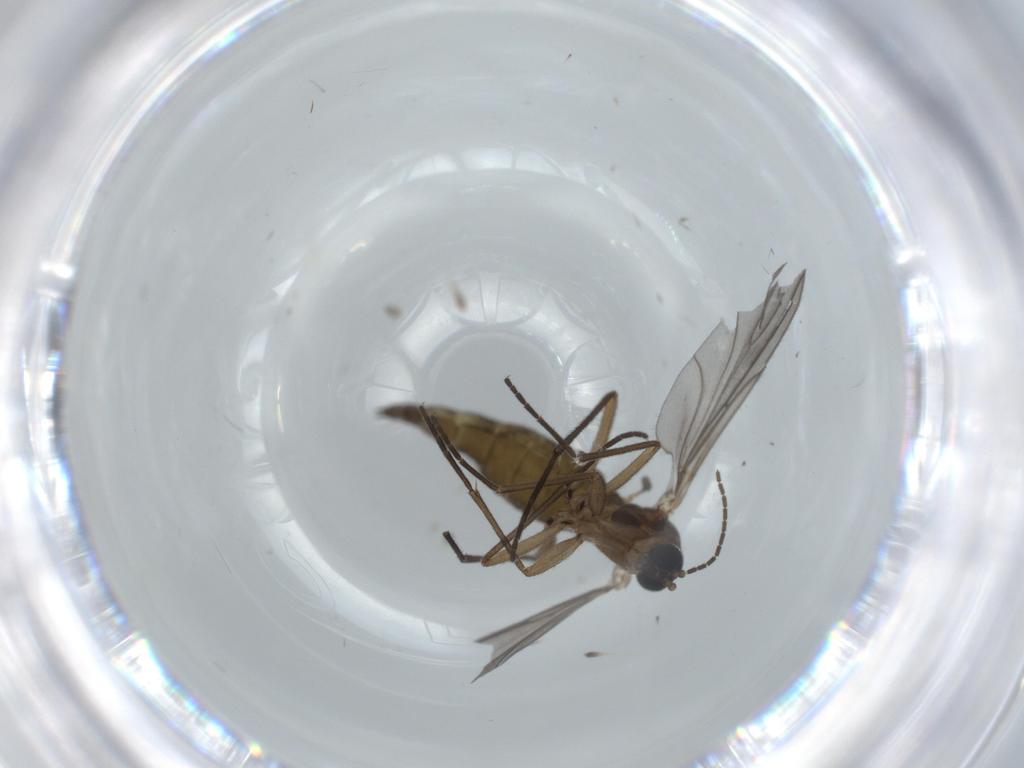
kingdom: Animalia
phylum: Arthropoda
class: Insecta
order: Diptera
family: Sciaridae
